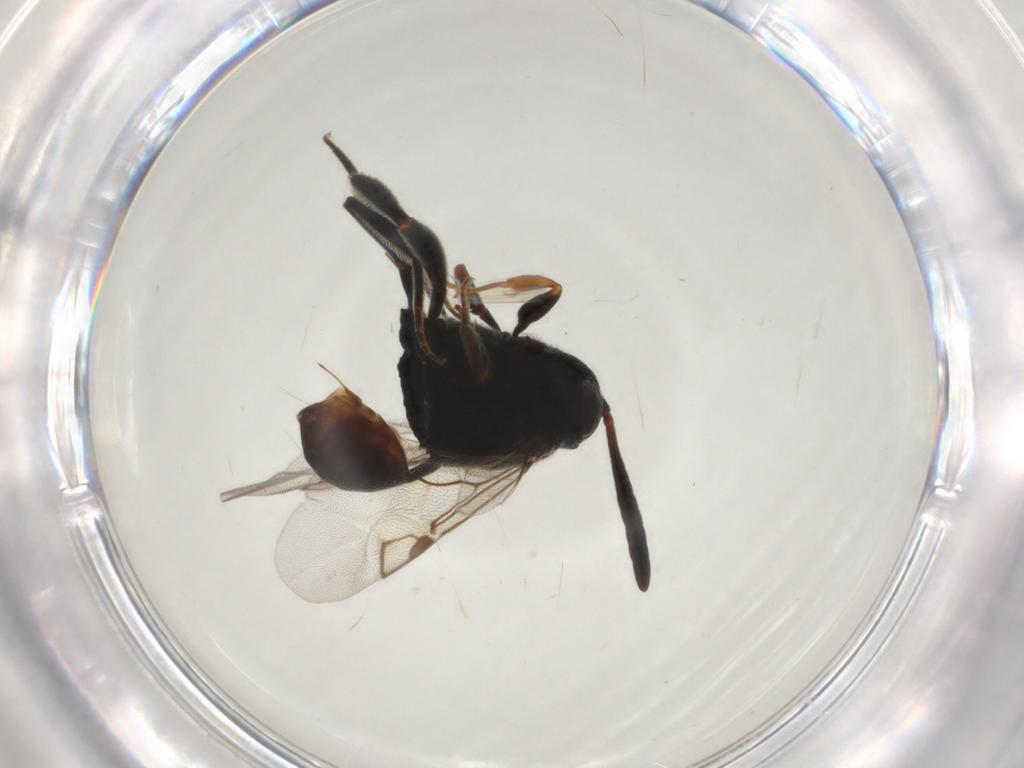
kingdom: Animalia
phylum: Arthropoda
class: Insecta
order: Hymenoptera
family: Evaniidae
